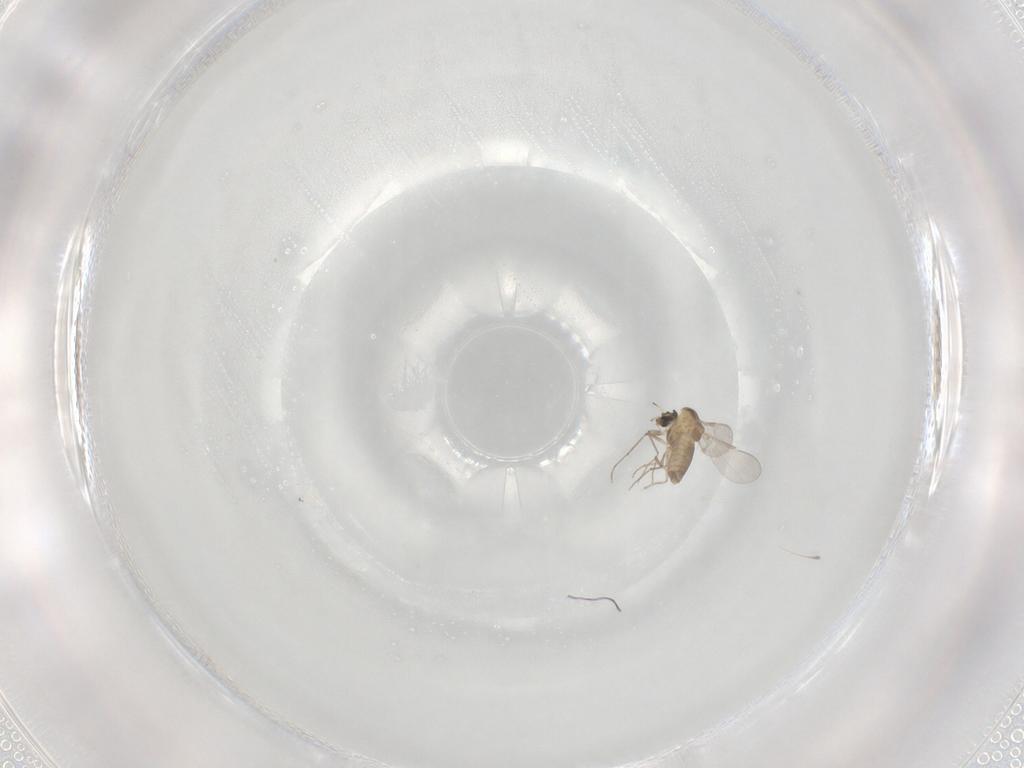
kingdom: Animalia
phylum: Arthropoda
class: Insecta
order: Diptera
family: Chironomidae
